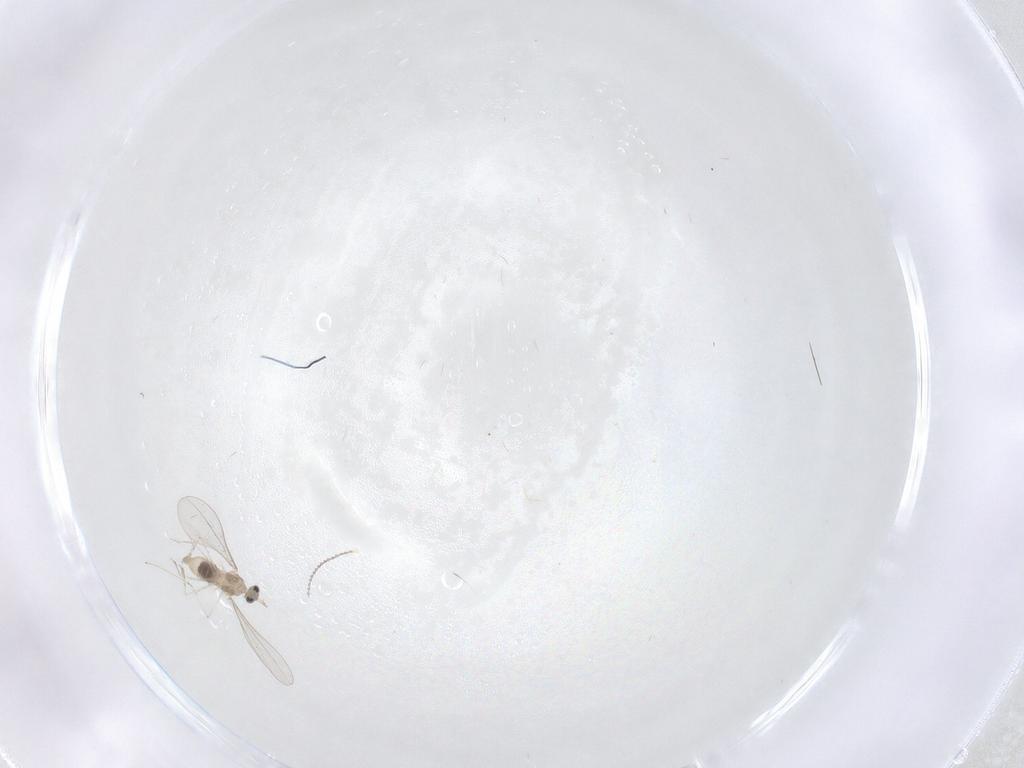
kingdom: Animalia
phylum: Arthropoda
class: Insecta
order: Diptera
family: Cecidomyiidae
